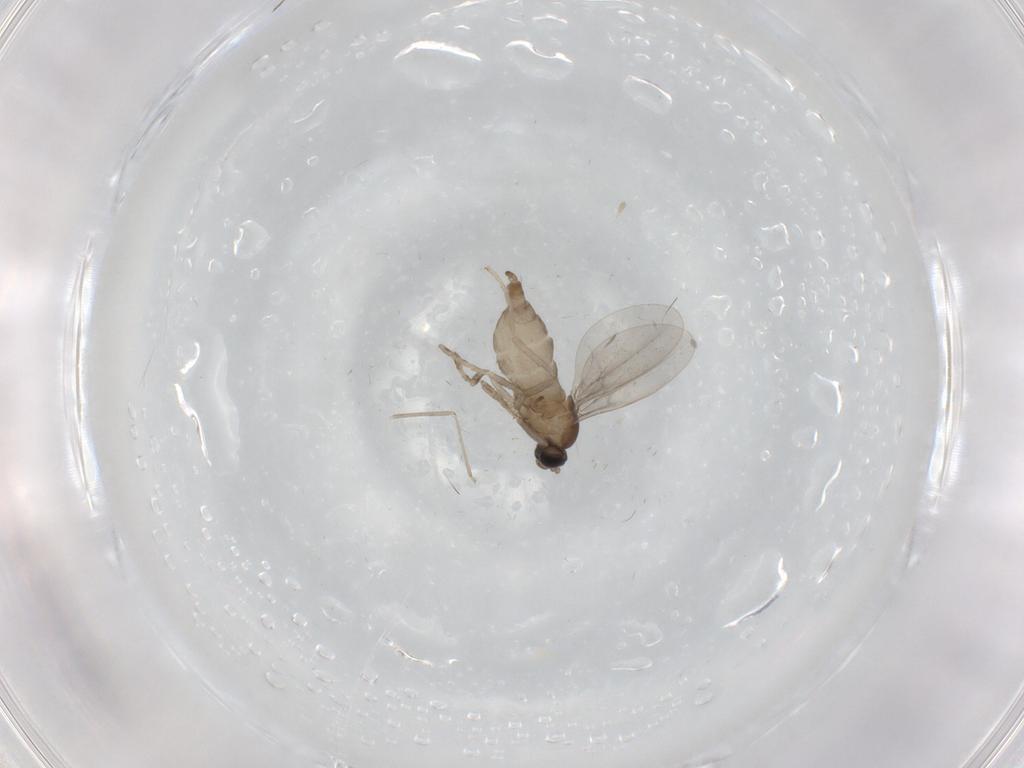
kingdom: Animalia
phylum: Arthropoda
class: Insecta
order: Diptera
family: Cecidomyiidae
